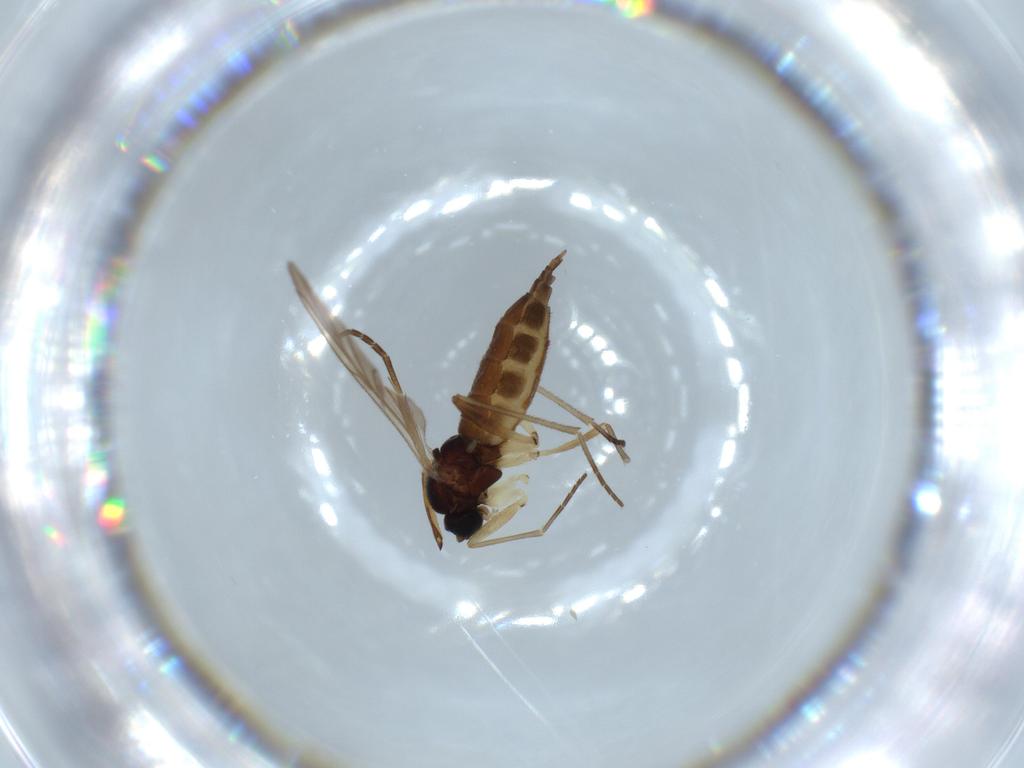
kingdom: Animalia
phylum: Arthropoda
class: Insecta
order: Diptera
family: Sciaridae
